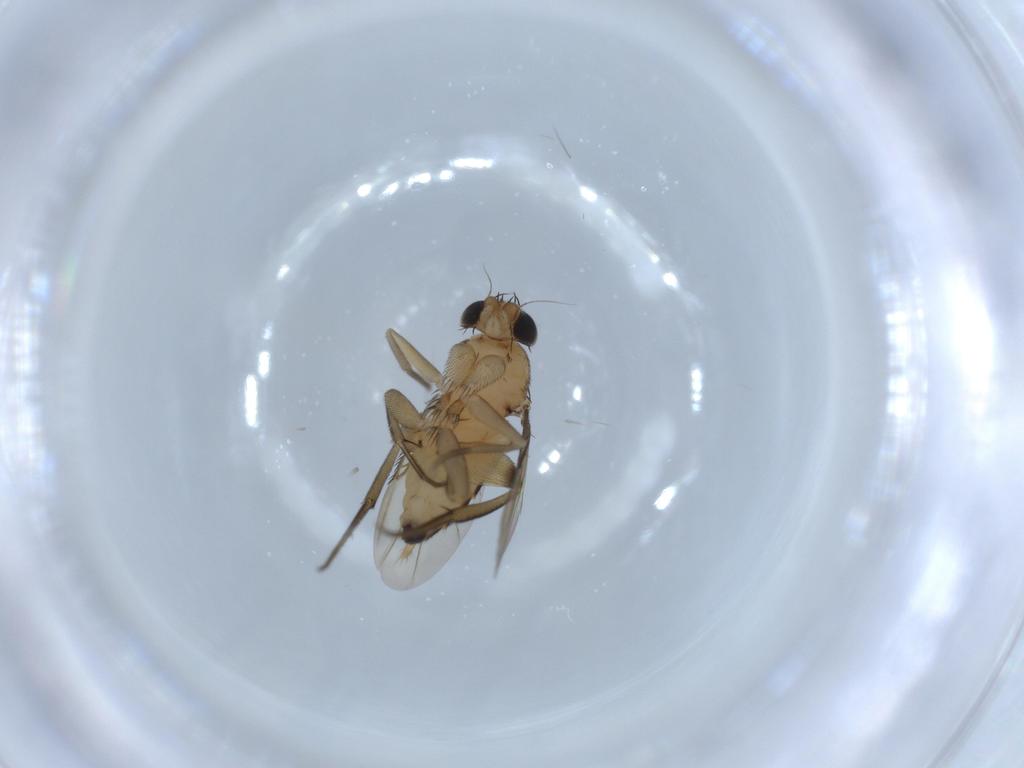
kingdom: Animalia
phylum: Arthropoda
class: Insecta
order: Diptera
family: Phoridae
